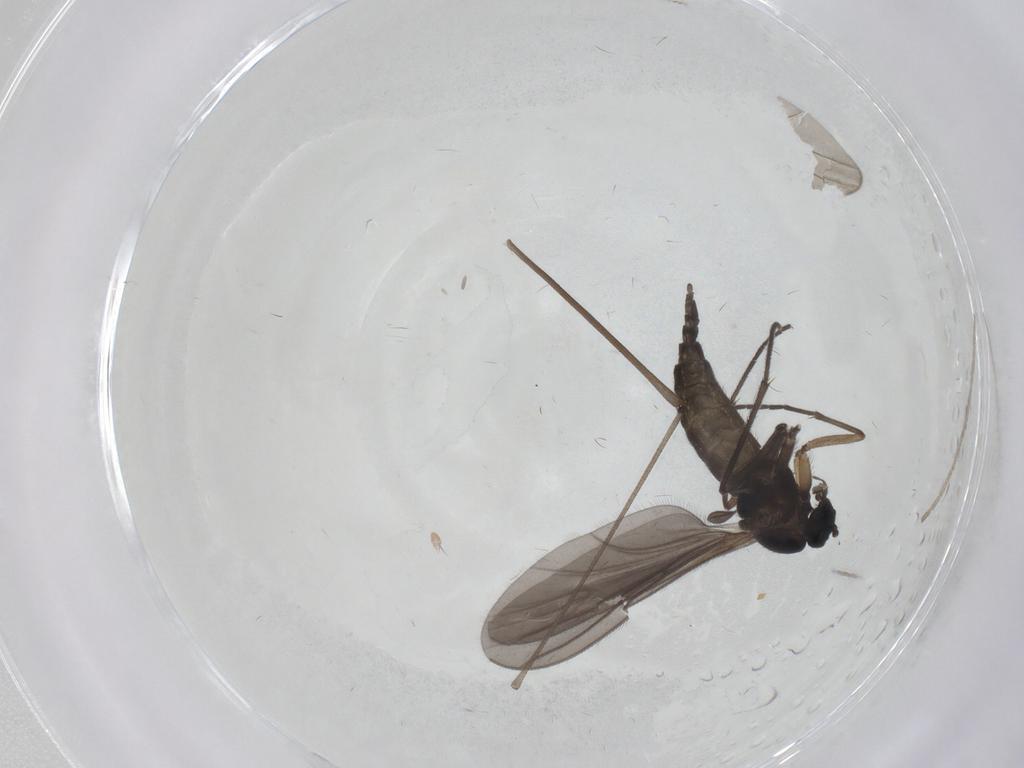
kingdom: Animalia
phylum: Arthropoda
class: Insecta
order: Diptera
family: Sciaridae
